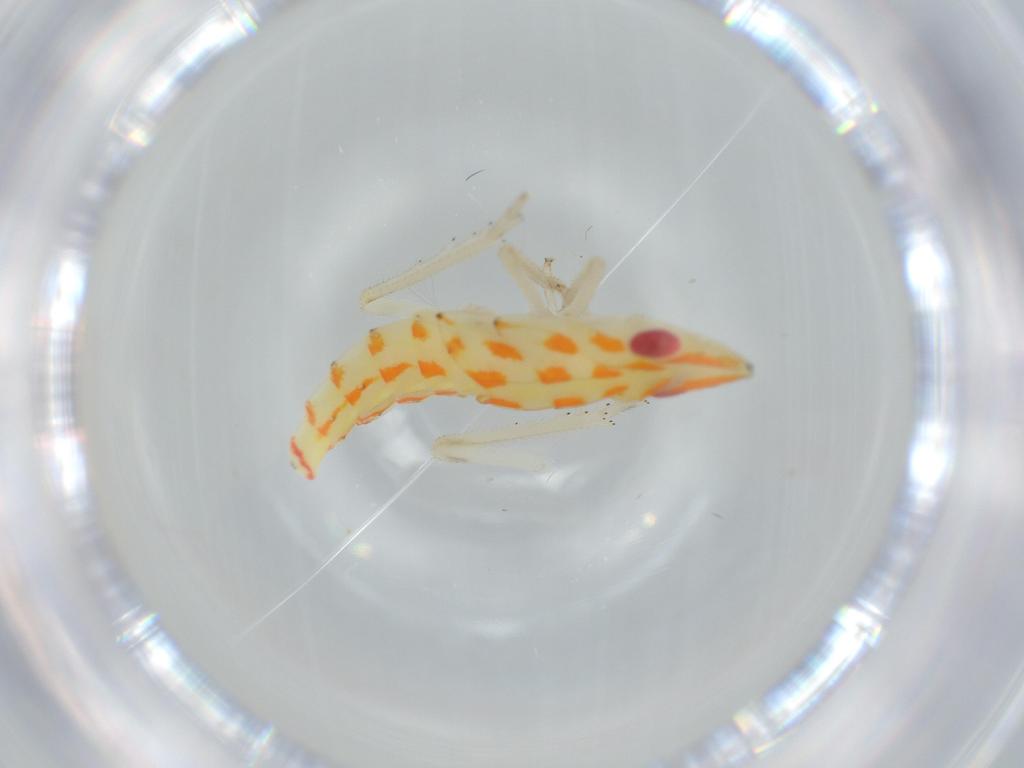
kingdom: Animalia
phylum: Arthropoda
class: Insecta
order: Hemiptera
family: Tropiduchidae
